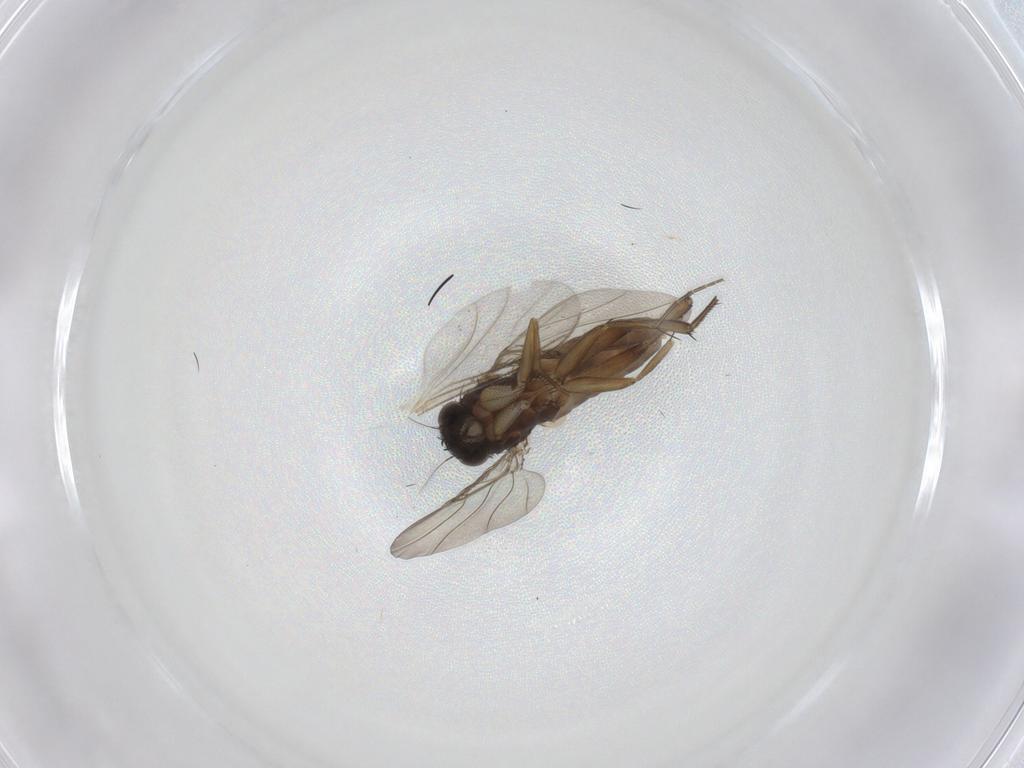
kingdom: Animalia
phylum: Arthropoda
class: Insecta
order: Diptera
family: Phoridae
